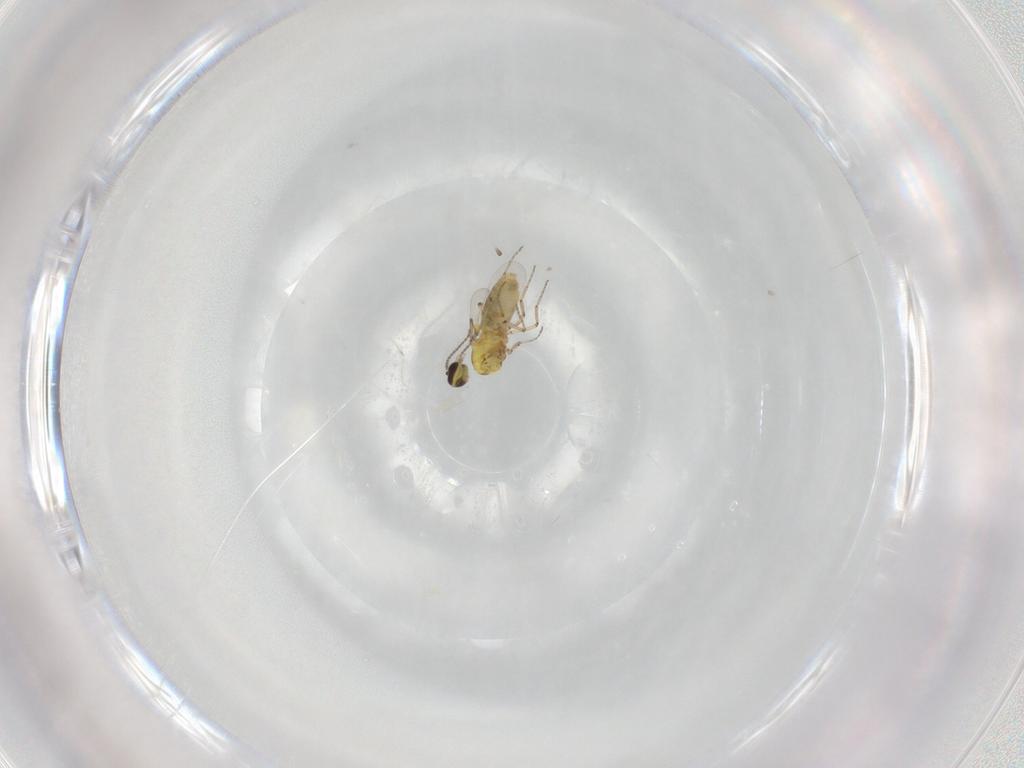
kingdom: Animalia
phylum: Arthropoda
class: Insecta
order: Diptera
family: Ceratopogonidae
